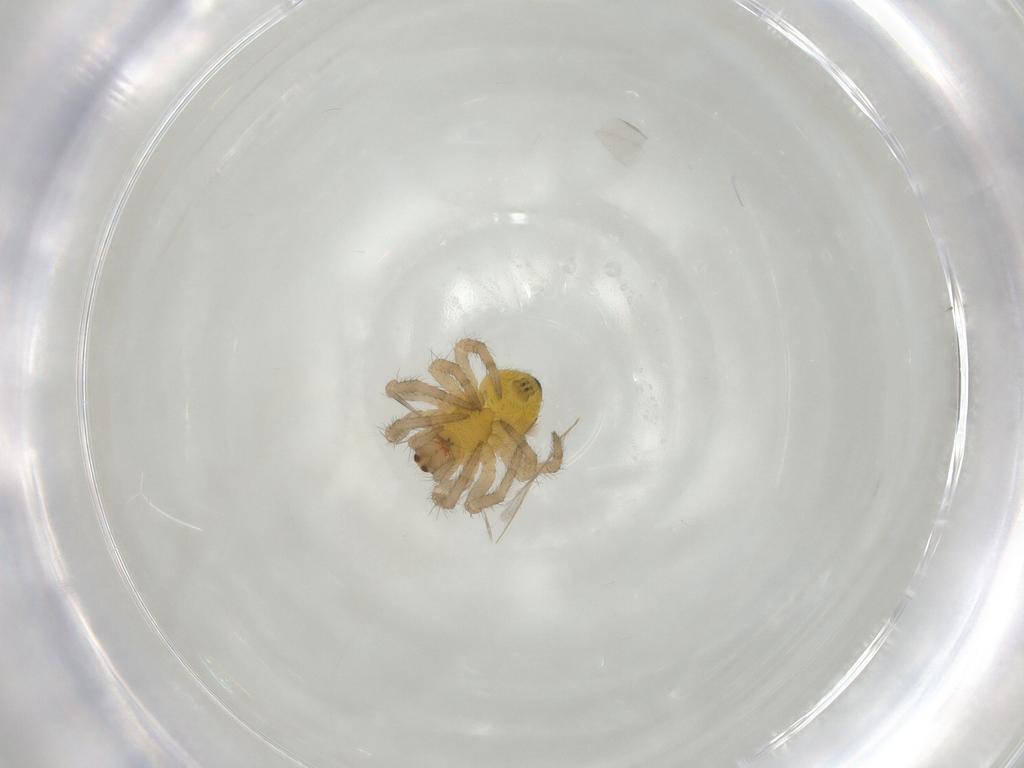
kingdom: Animalia
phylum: Arthropoda
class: Arachnida
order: Araneae
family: Araneidae
